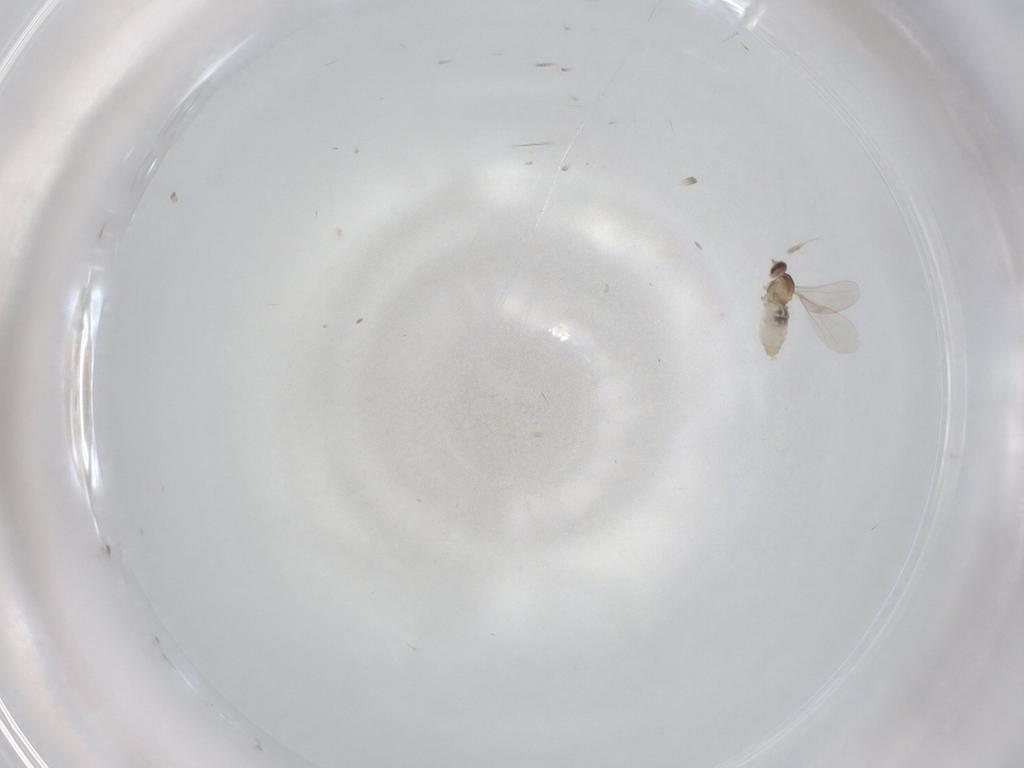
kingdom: Animalia
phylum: Arthropoda
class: Insecta
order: Diptera
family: Cecidomyiidae
